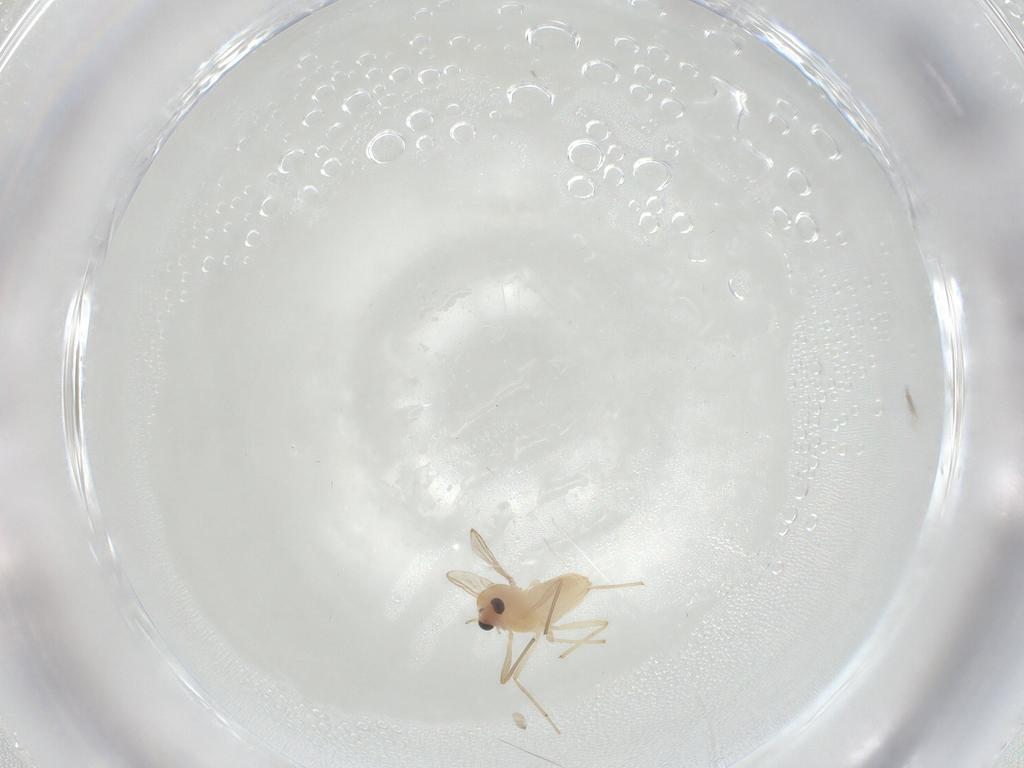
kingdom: Animalia
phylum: Arthropoda
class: Insecta
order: Diptera
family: Chironomidae
